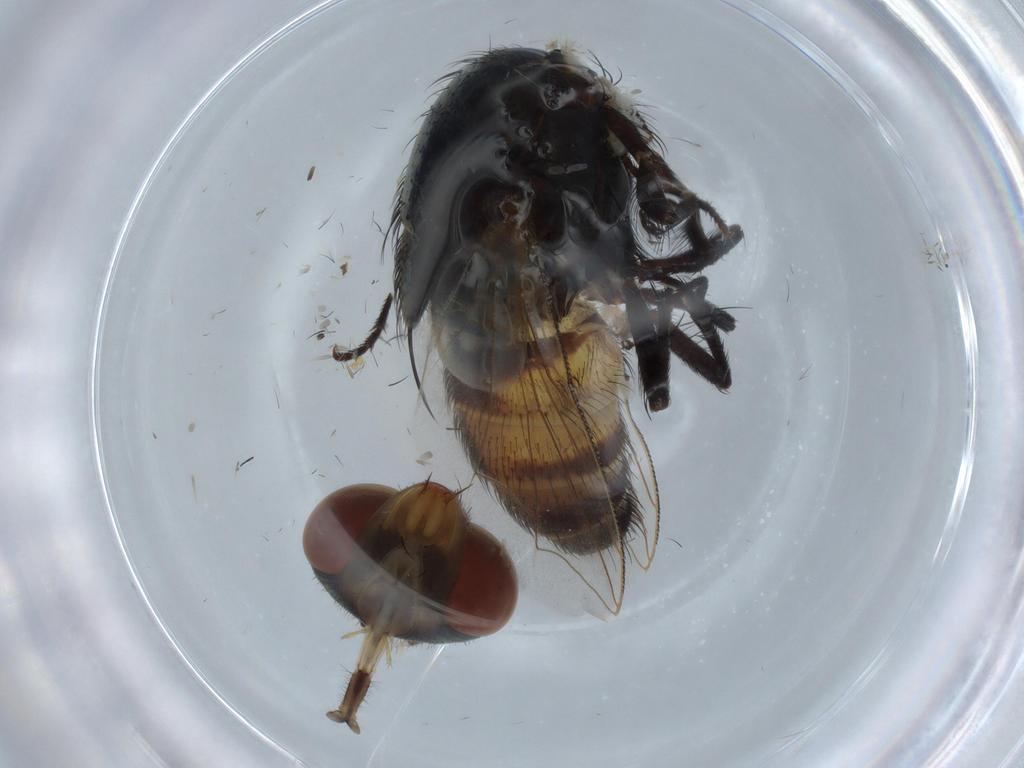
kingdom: Animalia
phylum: Arthropoda
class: Insecta
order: Diptera
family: Sarcophagidae
